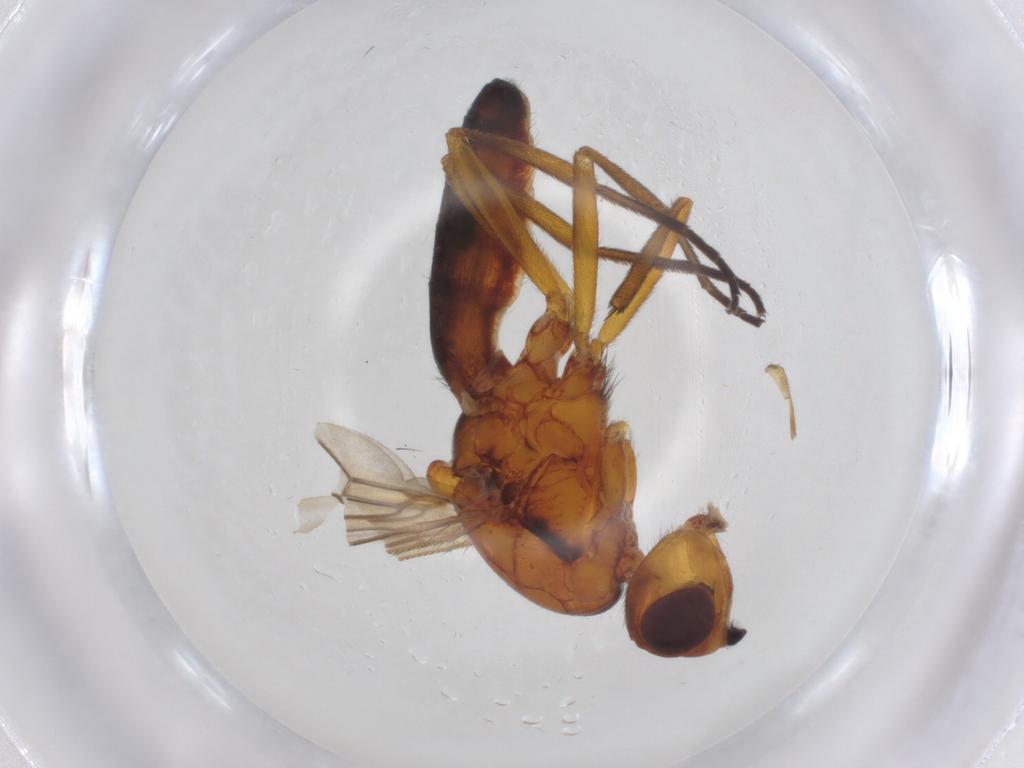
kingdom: Animalia
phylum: Arthropoda
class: Insecta
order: Diptera
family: Agromyzidae
